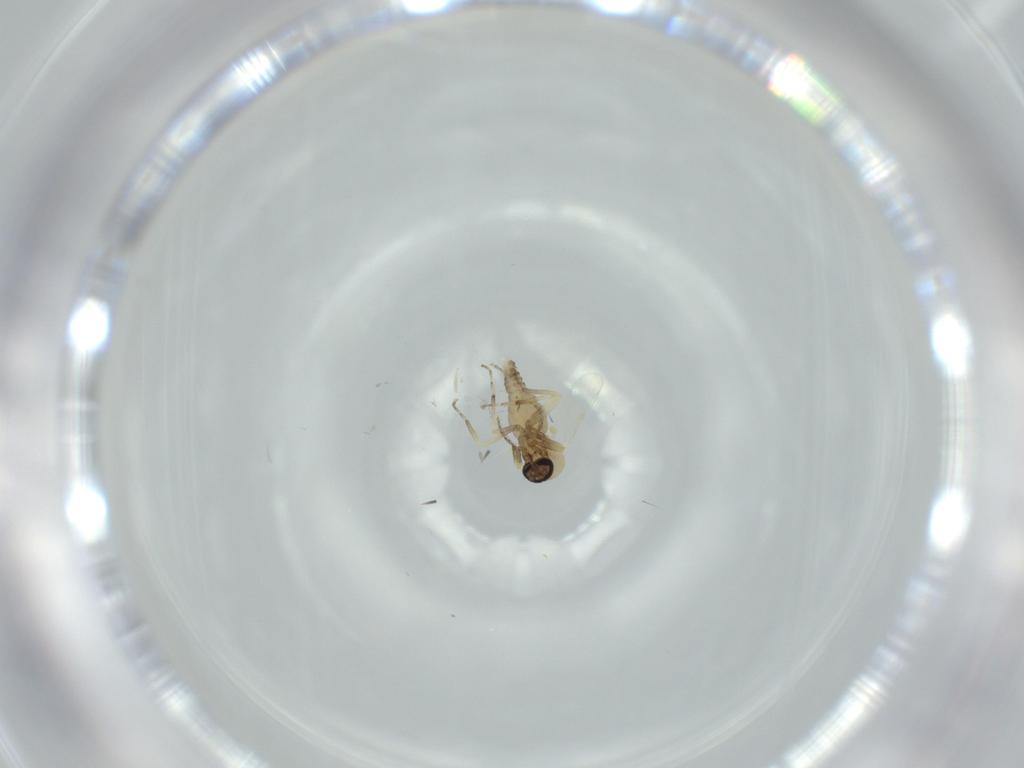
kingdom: Animalia
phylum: Arthropoda
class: Insecta
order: Diptera
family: Ceratopogonidae
